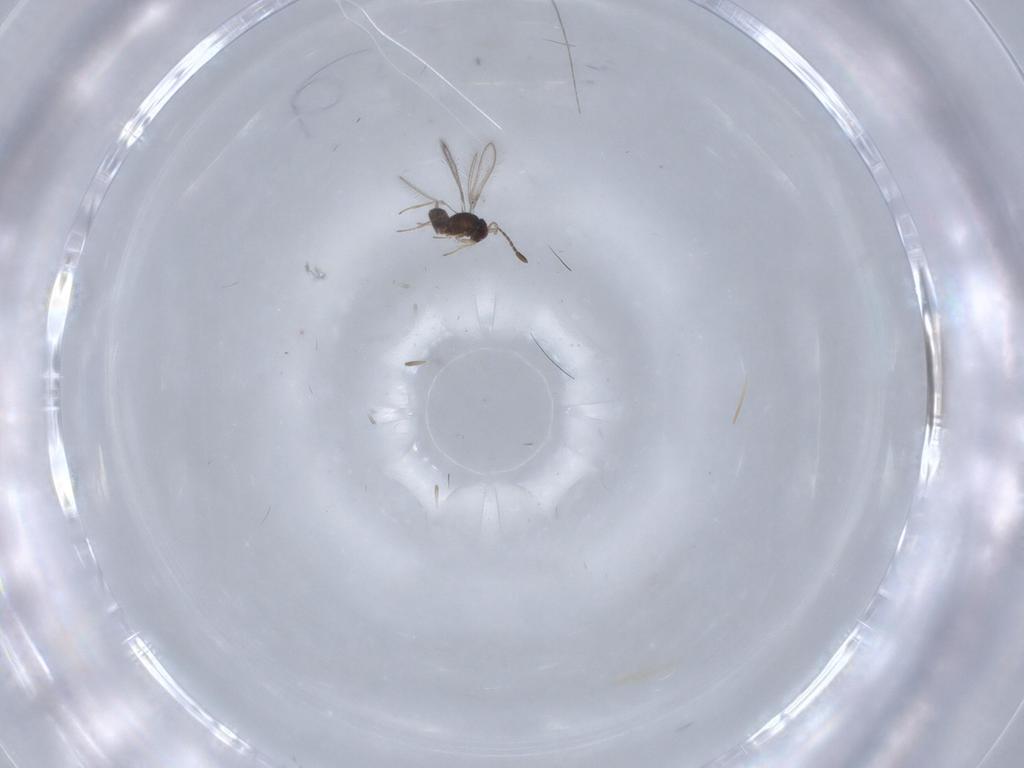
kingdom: Animalia
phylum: Arthropoda
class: Insecta
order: Hymenoptera
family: Mymaridae
